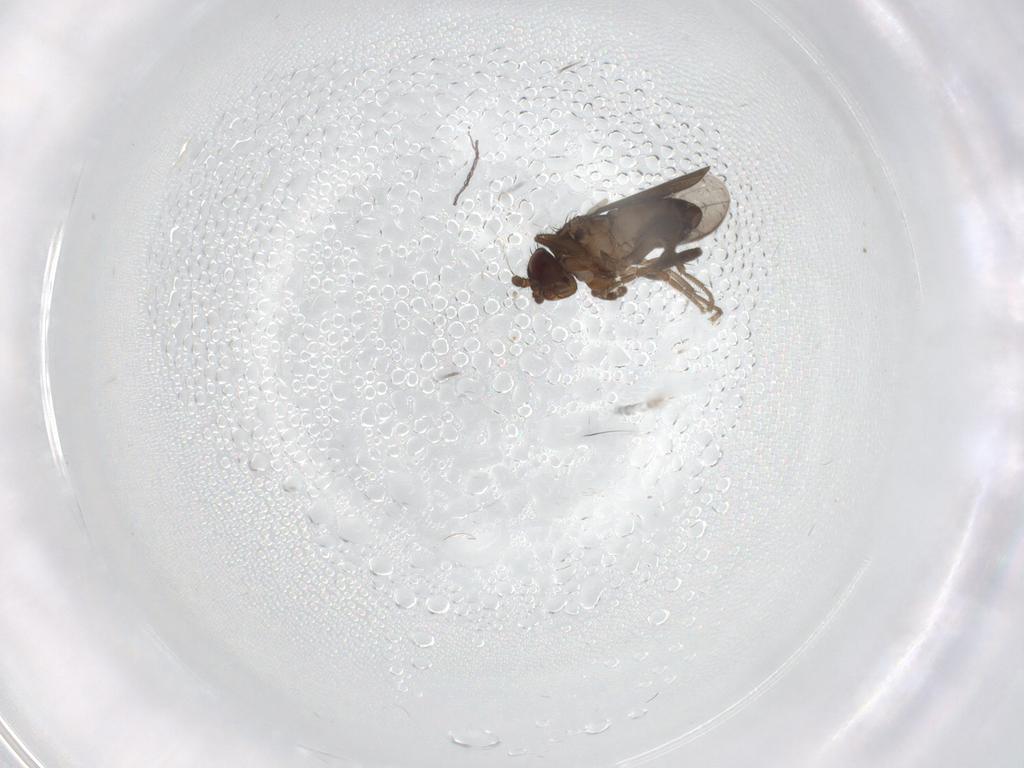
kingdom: Animalia
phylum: Arthropoda
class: Insecta
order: Diptera
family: Sphaeroceridae
